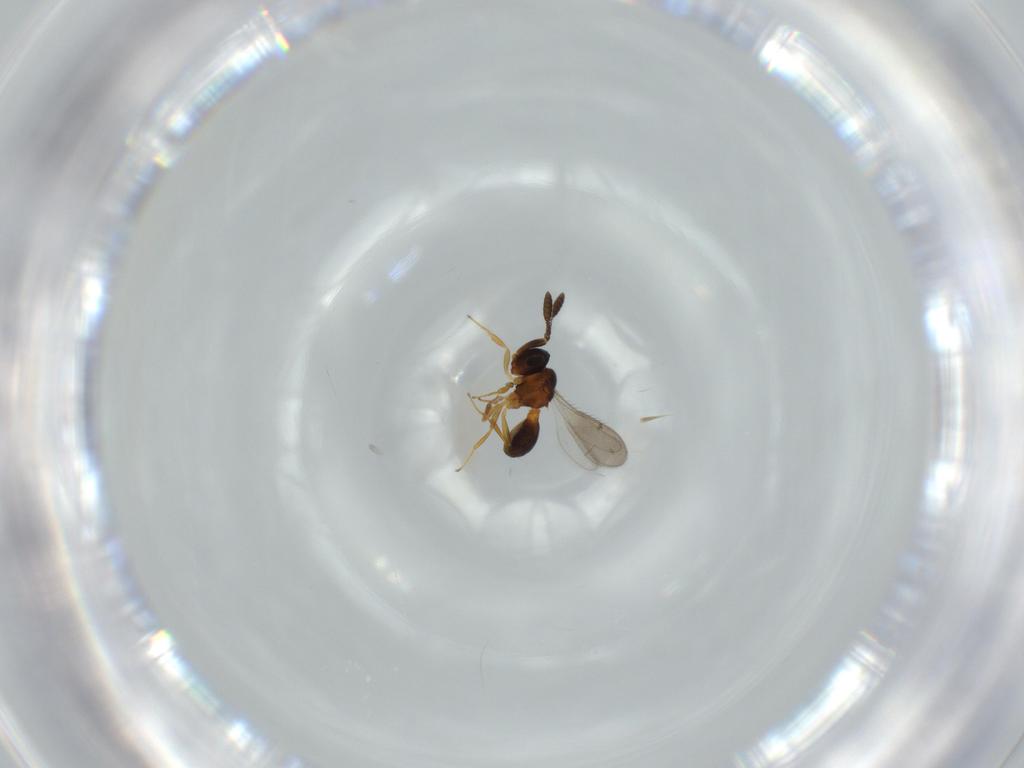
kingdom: Animalia
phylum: Arthropoda
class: Insecta
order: Hymenoptera
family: Scelionidae
